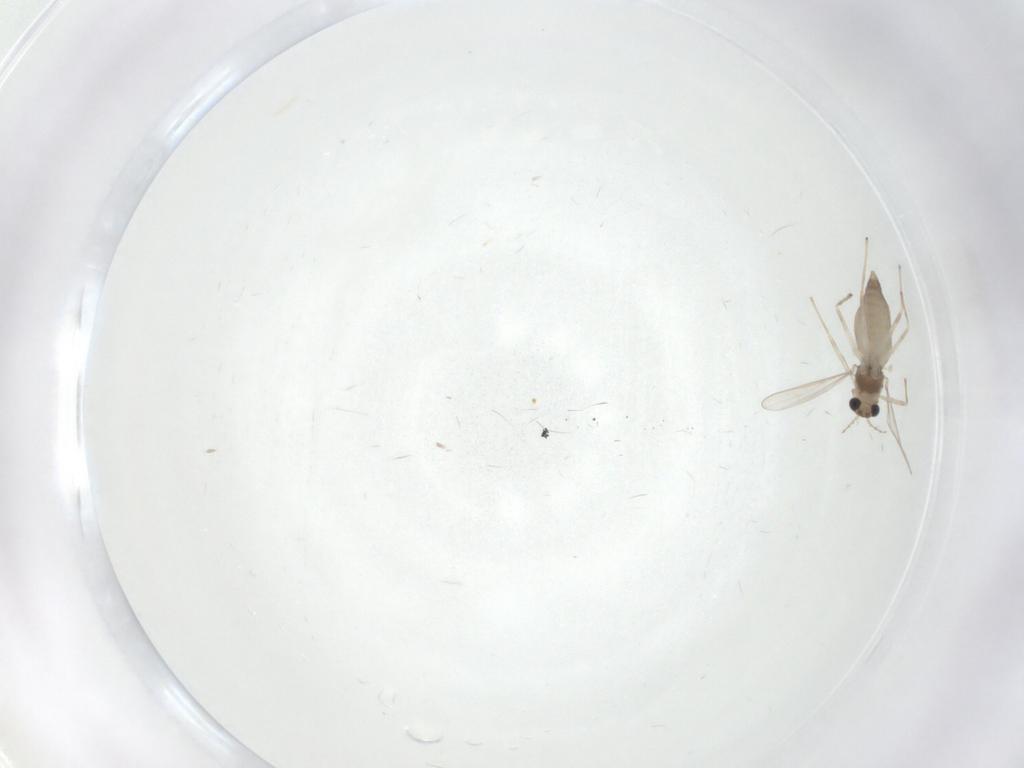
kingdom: Animalia
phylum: Arthropoda
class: Insecta
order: Diptera
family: Chironomidae
